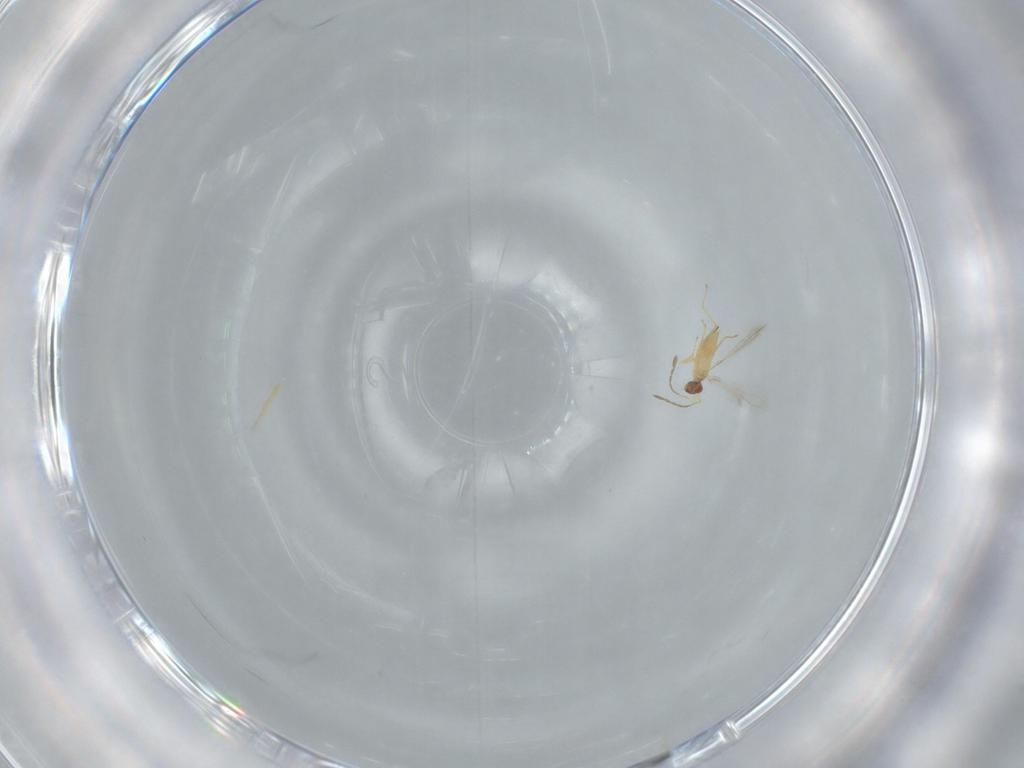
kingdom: Animalia
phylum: Arthropoda
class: Insecta
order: Hymenoptera
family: Mymaridae
